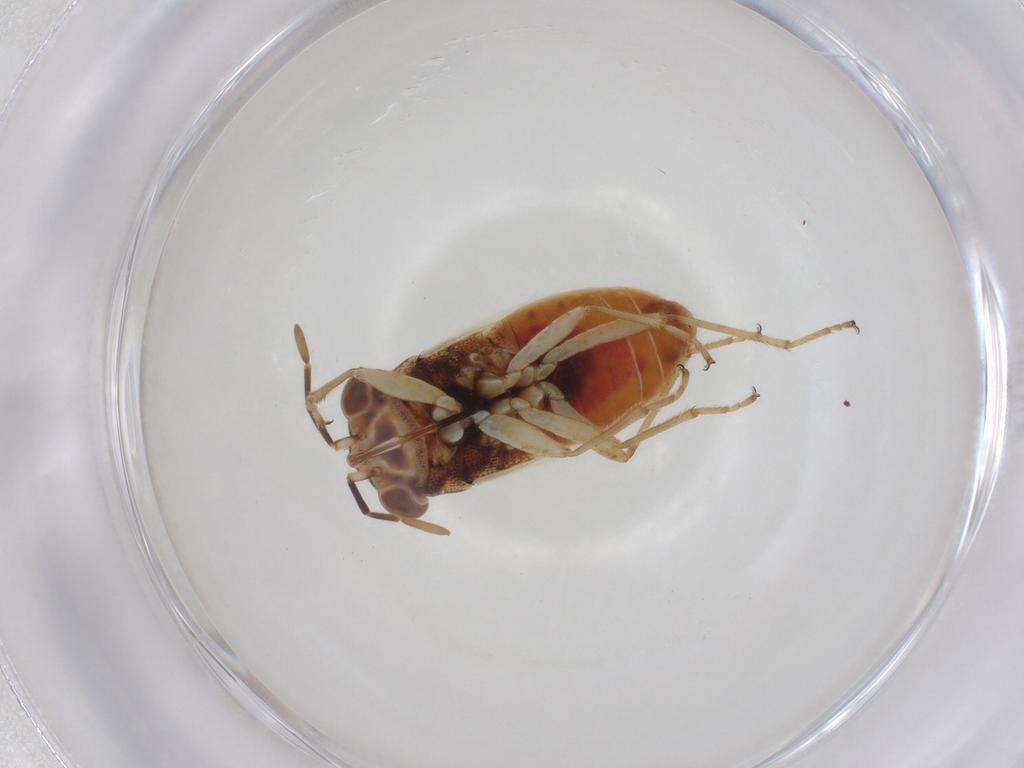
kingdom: Animalia
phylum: Arthropoda
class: Insecta
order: Hemiptera
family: Geocoridae
